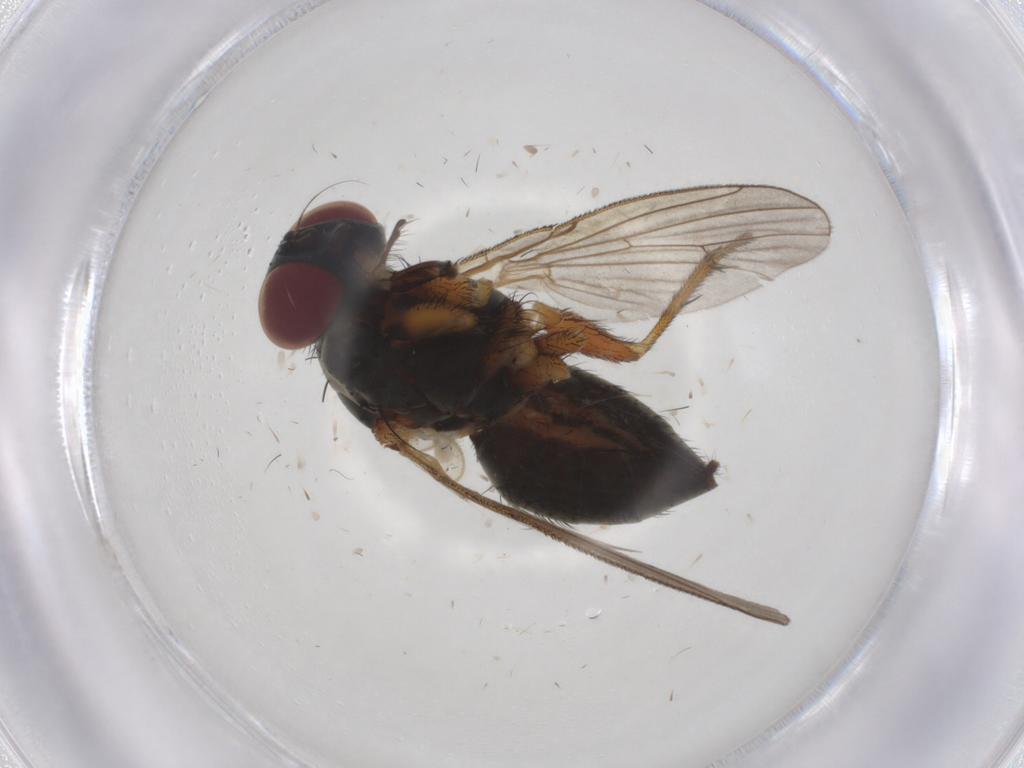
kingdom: Animalia
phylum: Arthropoda
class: Insecta
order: Diptera
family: Muscidae
